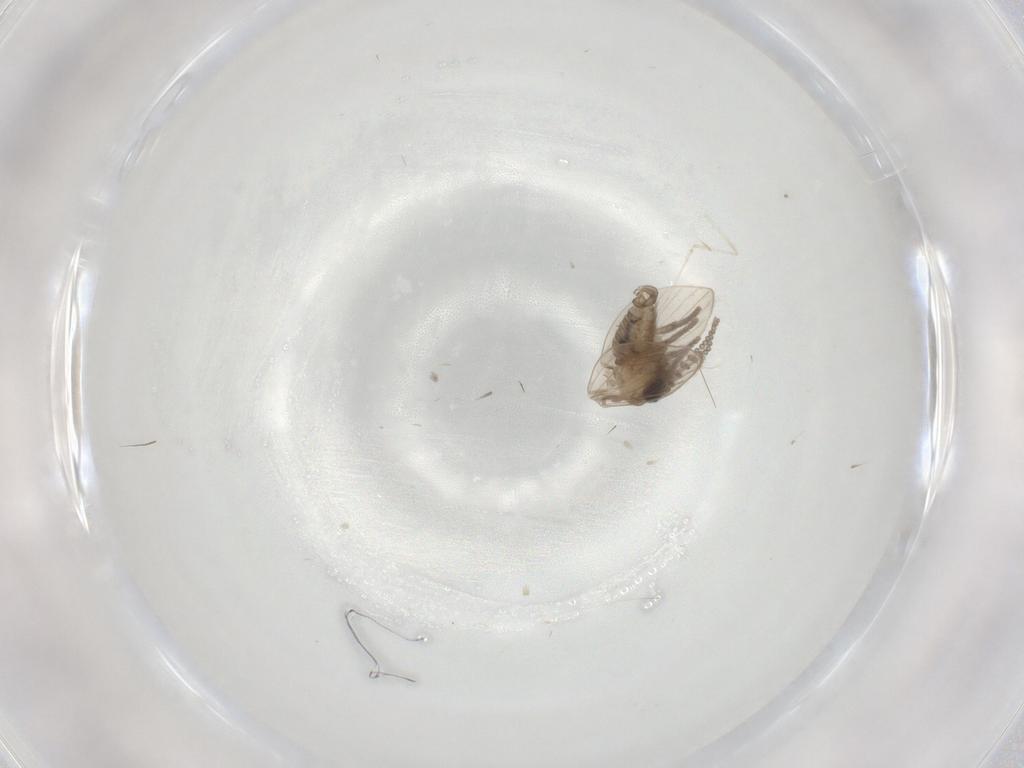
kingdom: Animalia
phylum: Arthropoda
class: Insecta
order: Diptera
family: Psychodidae
